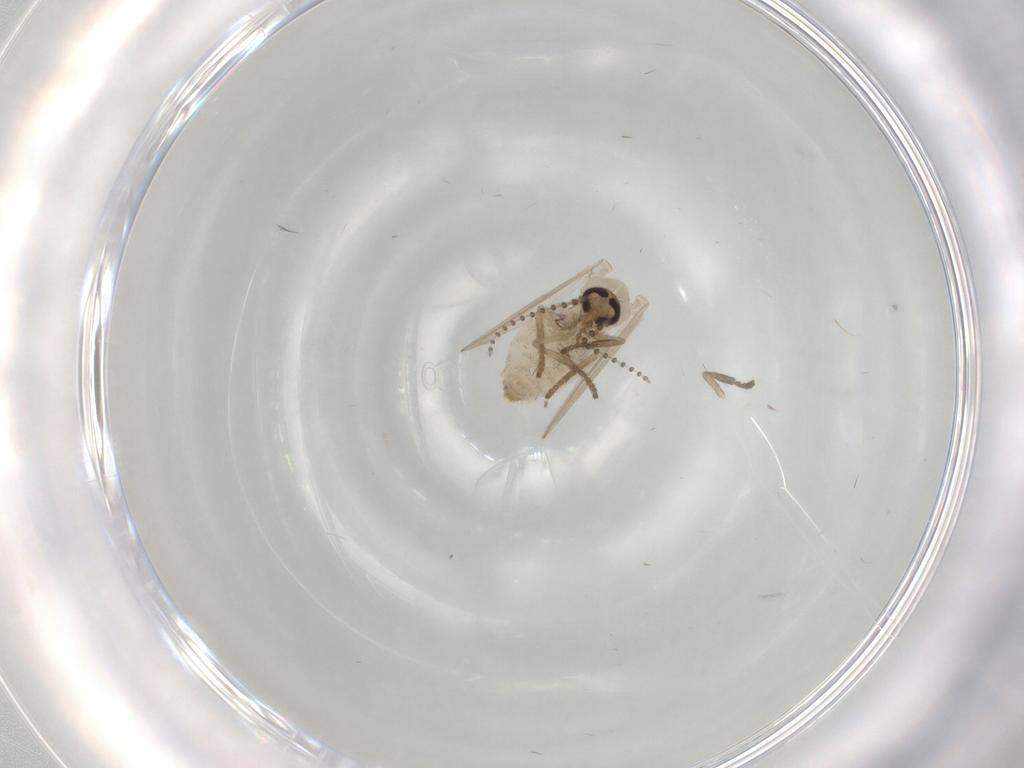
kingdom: Animalia
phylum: Arthropoda
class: Insecta
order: Diptera
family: Psychodidae
